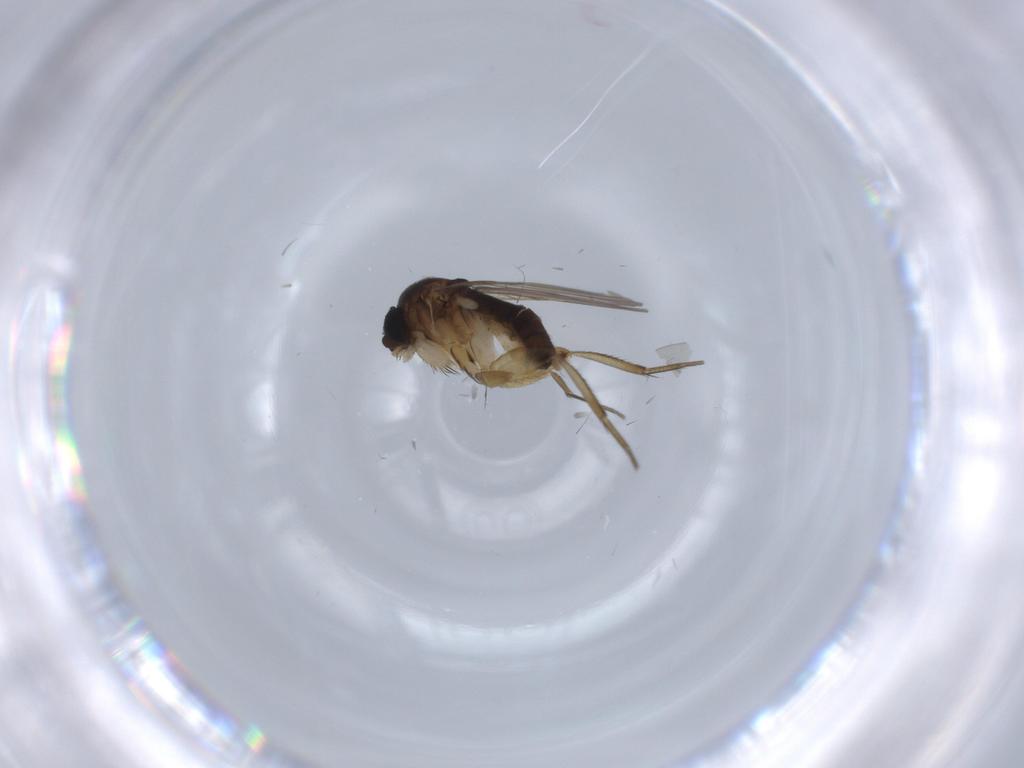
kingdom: Animalia
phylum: Arthropoda
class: Insecta
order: Diptera
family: Phoridae
